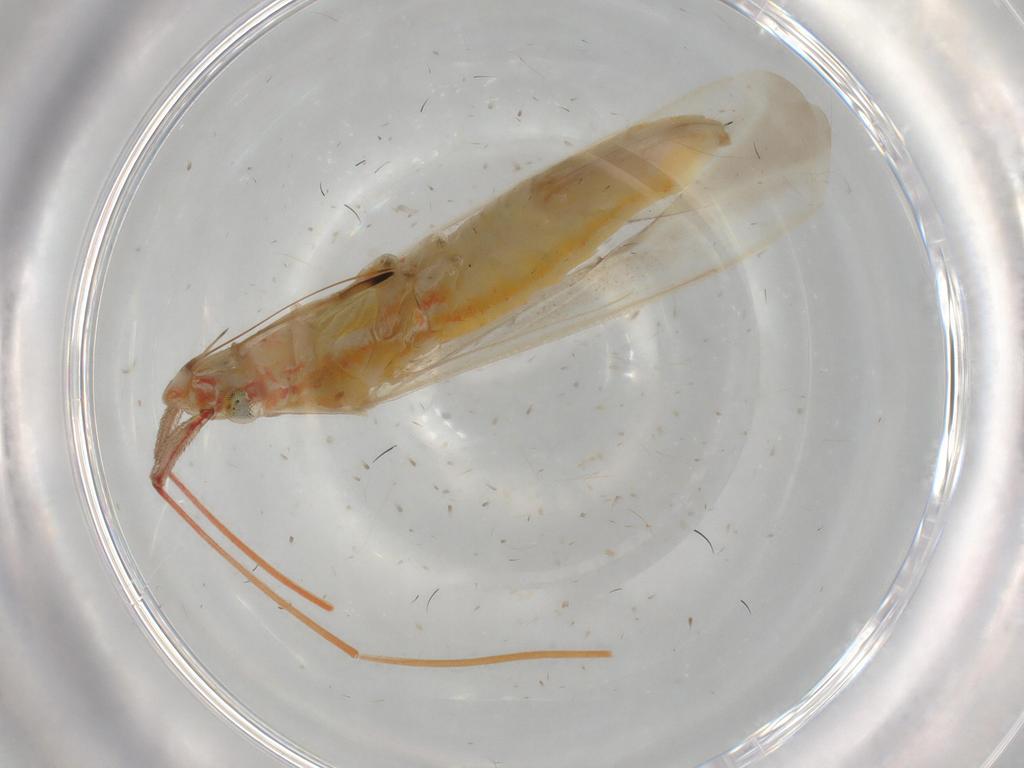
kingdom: Animalia
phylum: Arthropoda
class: Insecta
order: Hemiptera
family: Miridae
